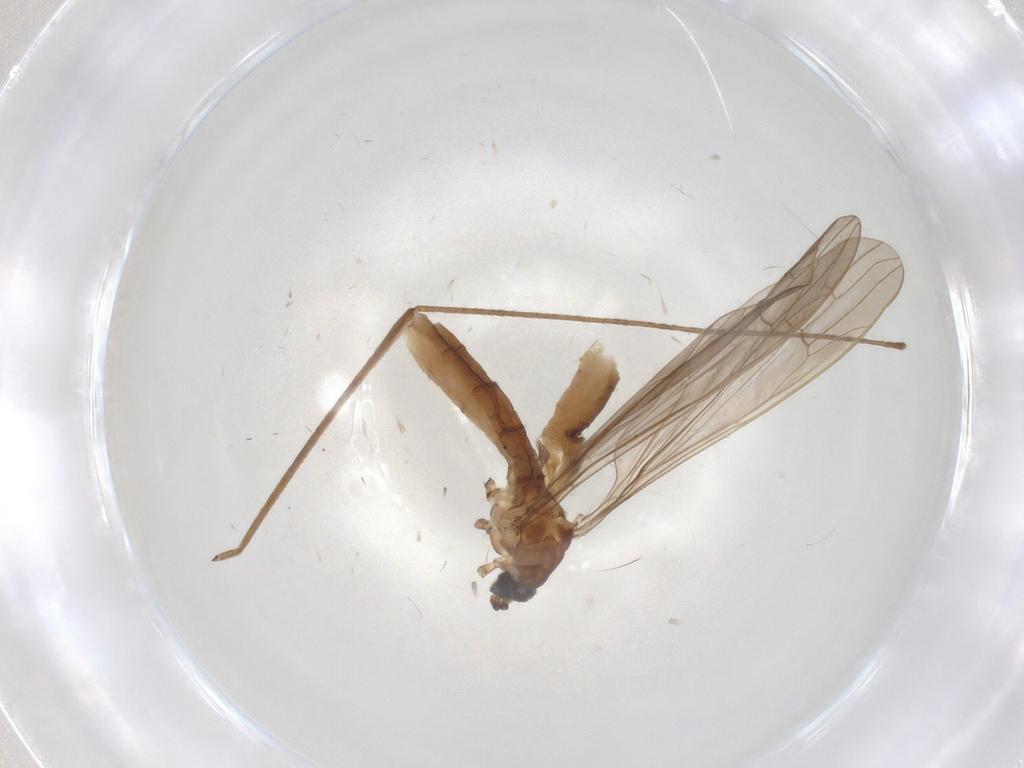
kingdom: Animalia
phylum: Arthropoda
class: Insecta
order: Diptera
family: Limoniidae
